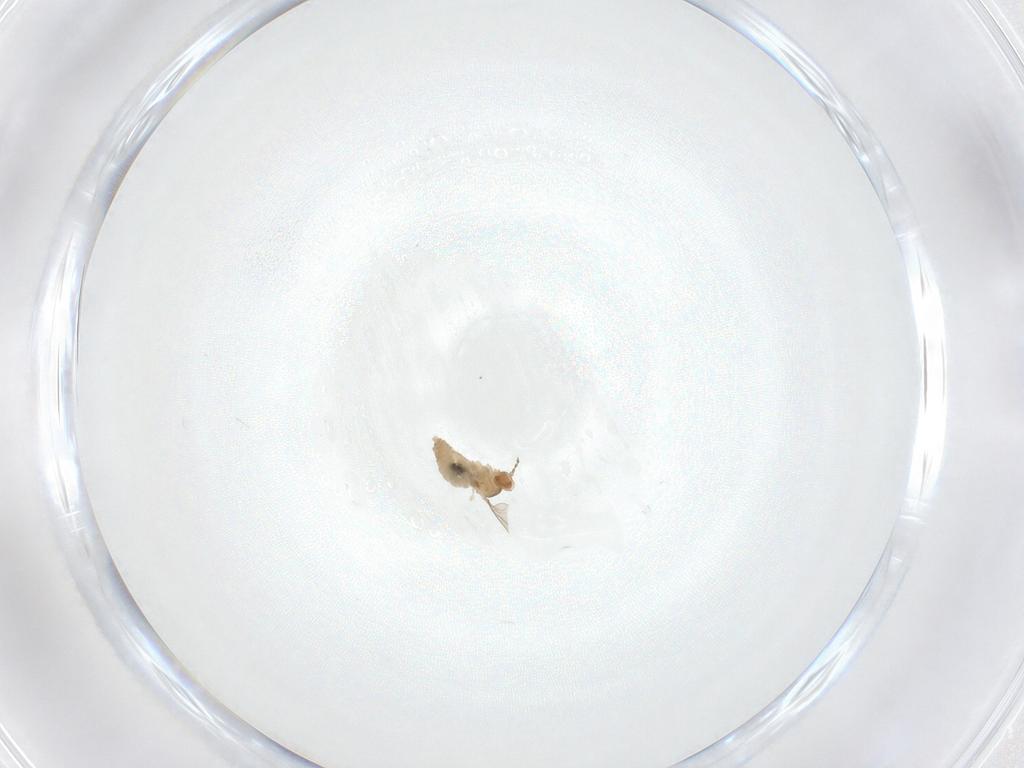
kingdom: Animalia
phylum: Arthropoda
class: Insecta
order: Diptera
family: Cecidomyiidae
